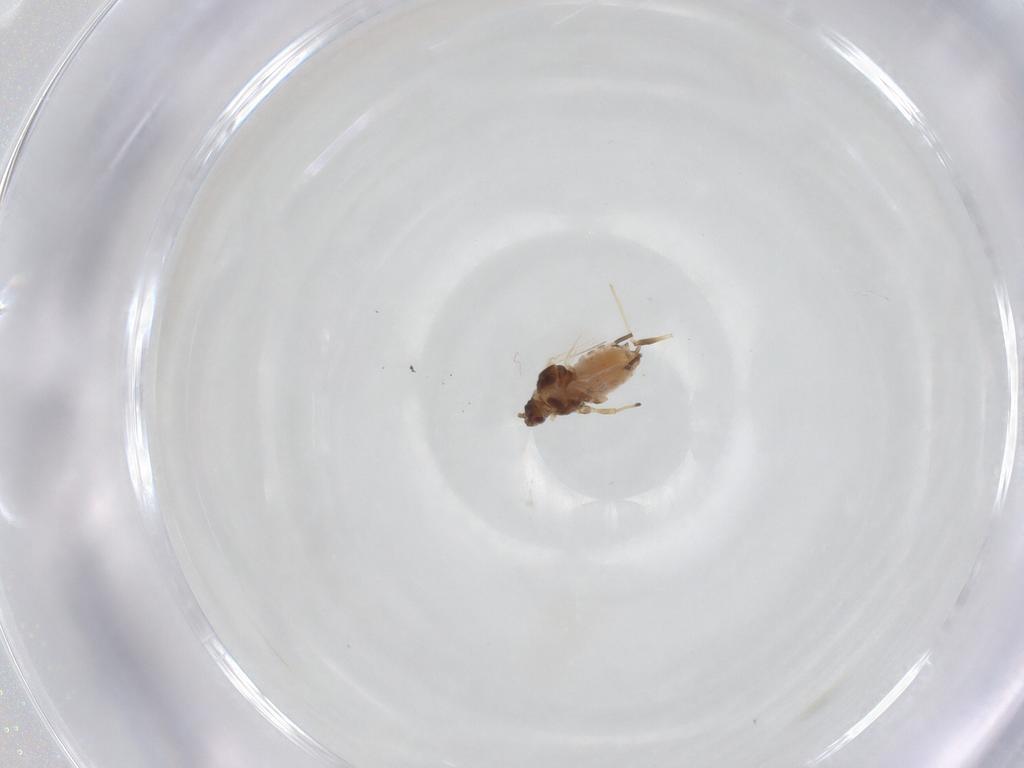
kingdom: Animalia
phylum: Arthropoda
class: Insecta
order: Hemiptera
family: Aphididae
